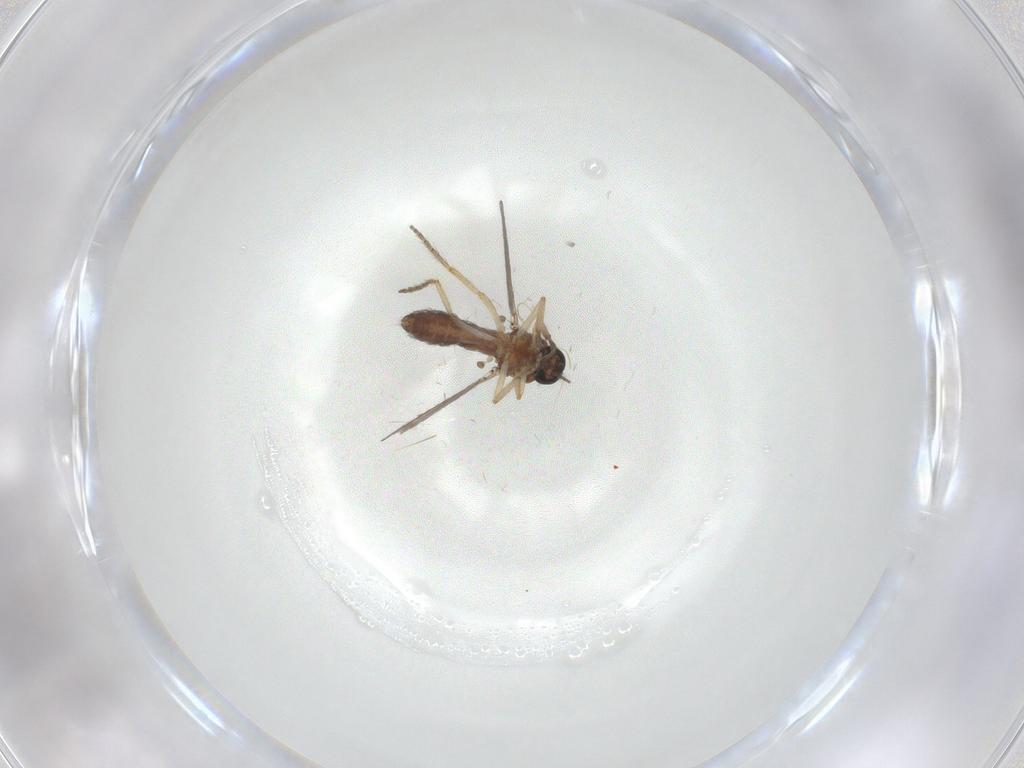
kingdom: Animalia
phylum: Arthropoda
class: Insecta
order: Diptera
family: Ceratopogonidae
